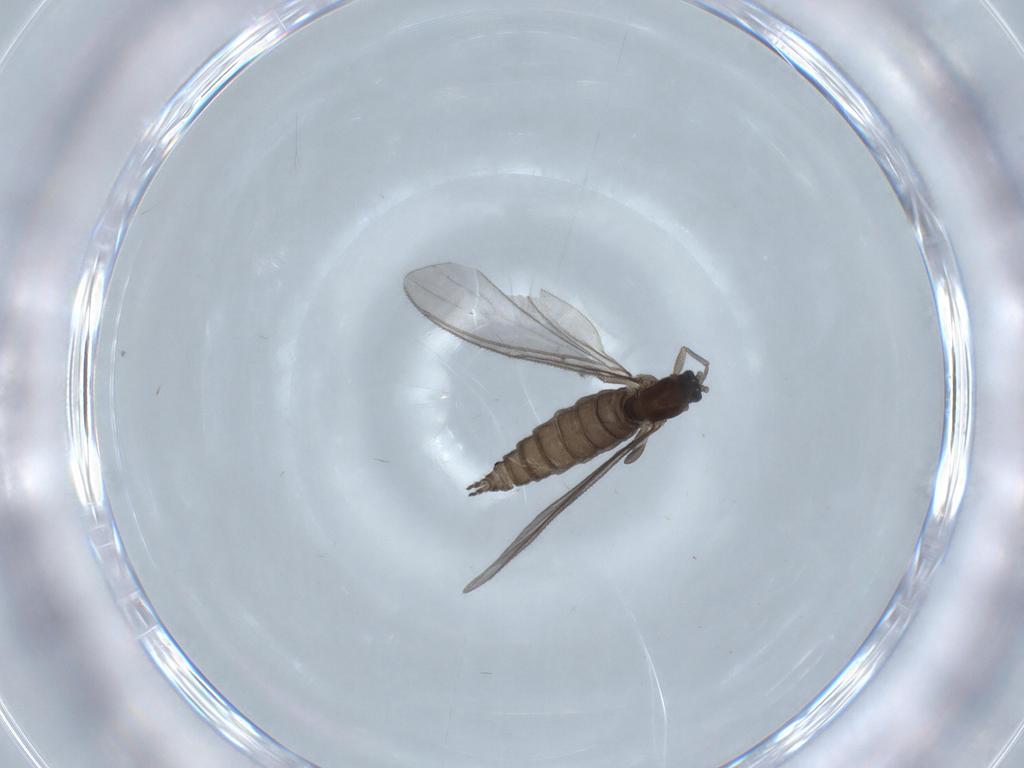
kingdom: Animalia
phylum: Arthropoda
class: Insecta
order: Diptera
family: Sciaridae
